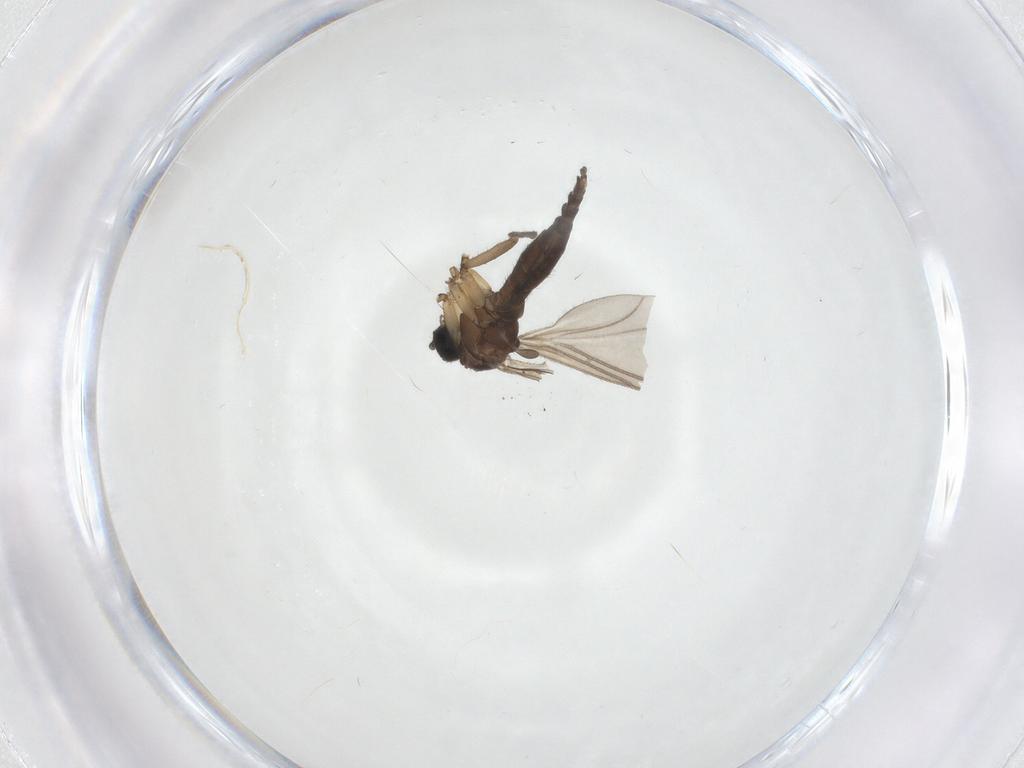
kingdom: Animalia
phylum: Arthropoda
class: Insecta
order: Diptera
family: Sciaridae
